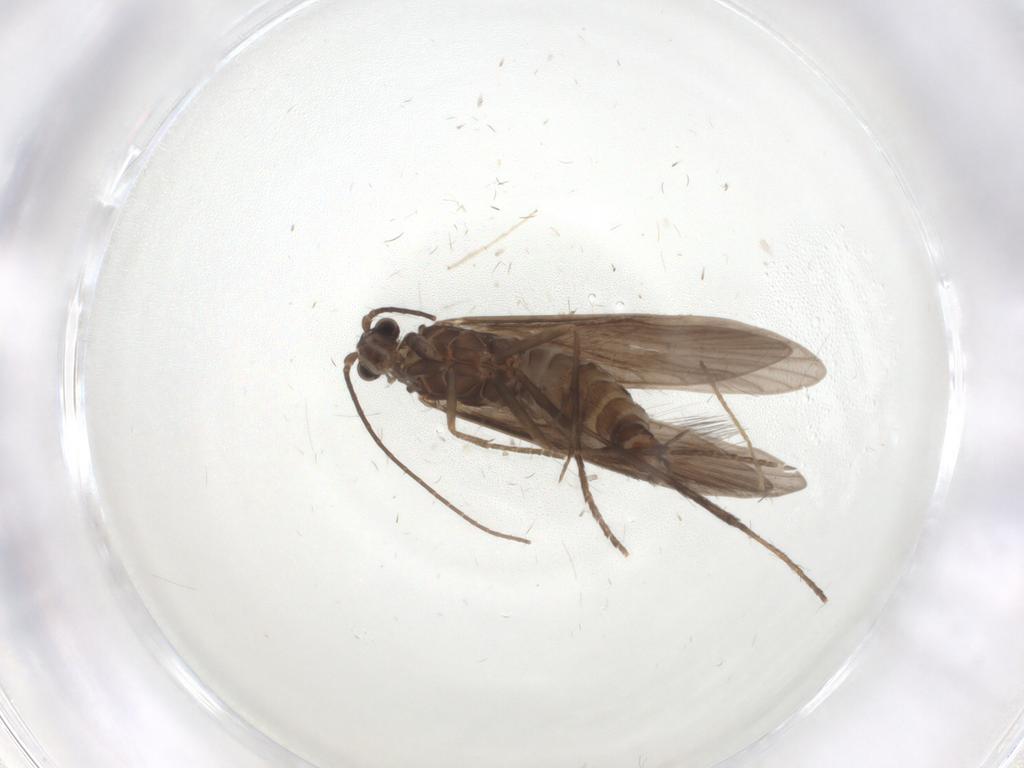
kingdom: Animalia
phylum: Arthropoda
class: Insecta
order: Trichoptera
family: Xiphocentronidae
